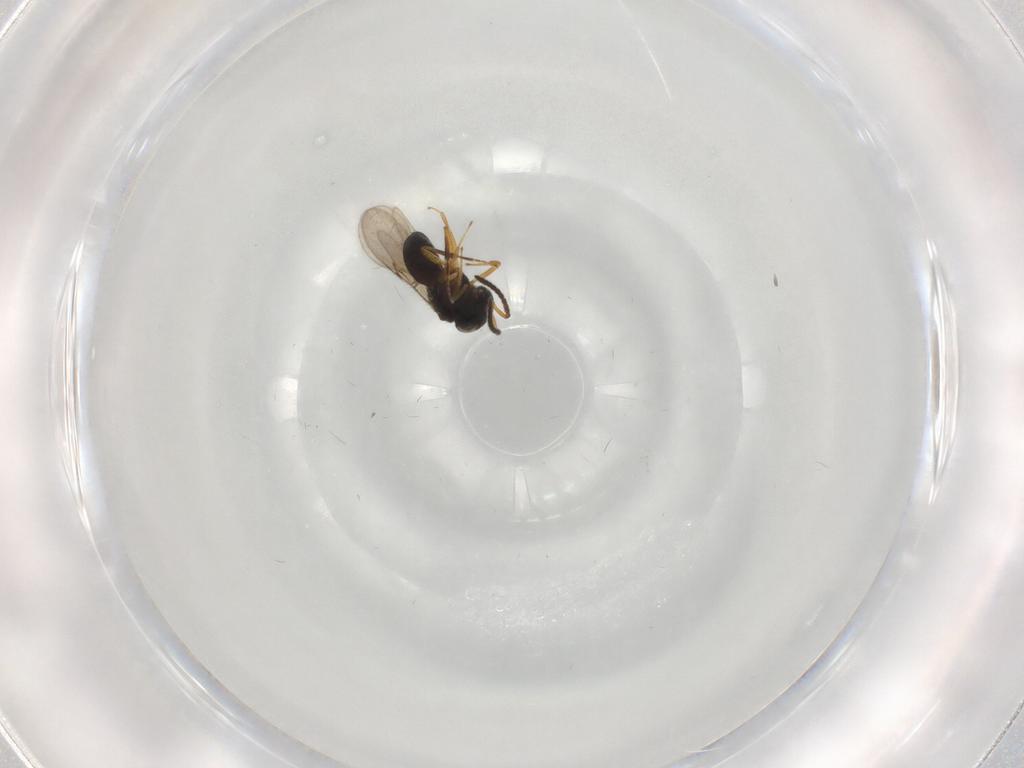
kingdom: Animalia
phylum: Arthropoda
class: Insecta
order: Hymenoptera
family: Scelionidae
